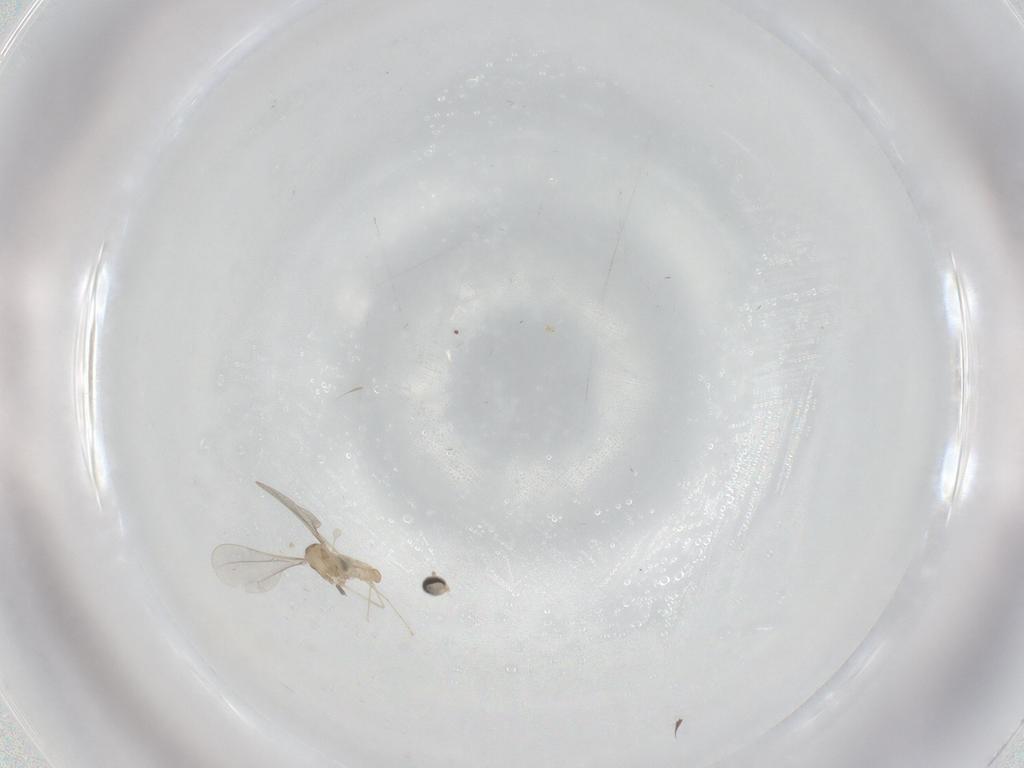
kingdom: Animalia
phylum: Arthropoda
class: Insecta
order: Diptera
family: Cecidomyiidae
